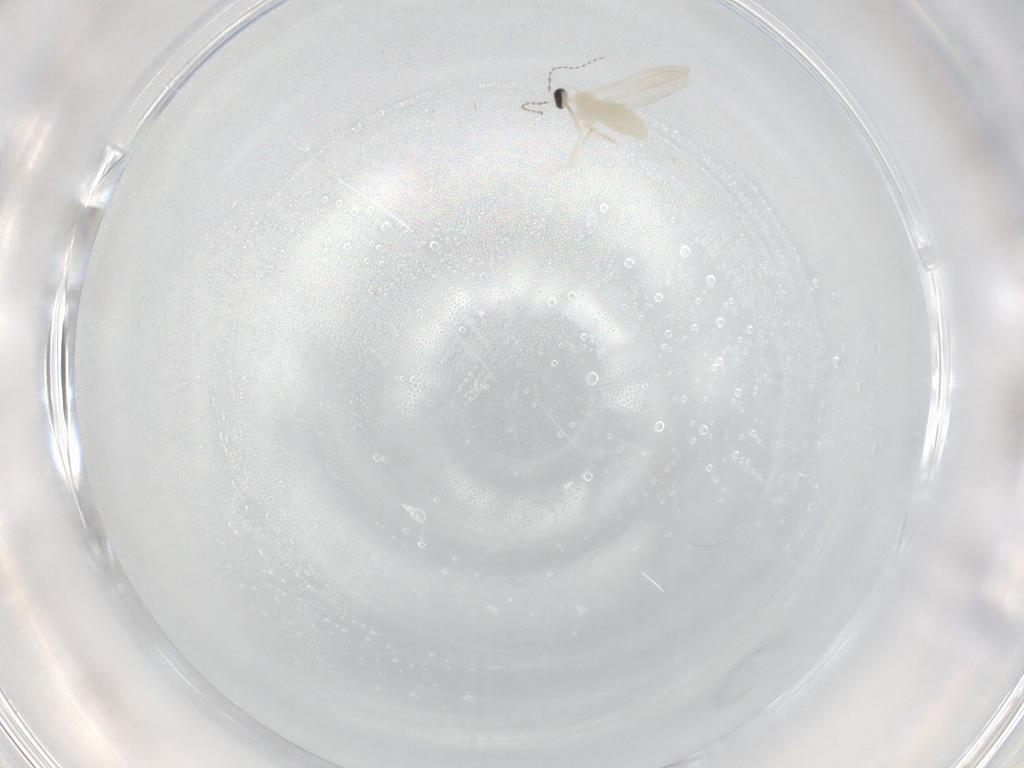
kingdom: Animalia
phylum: Arthropoda
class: Insecta
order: Diptera
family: Cecidomyiidae
